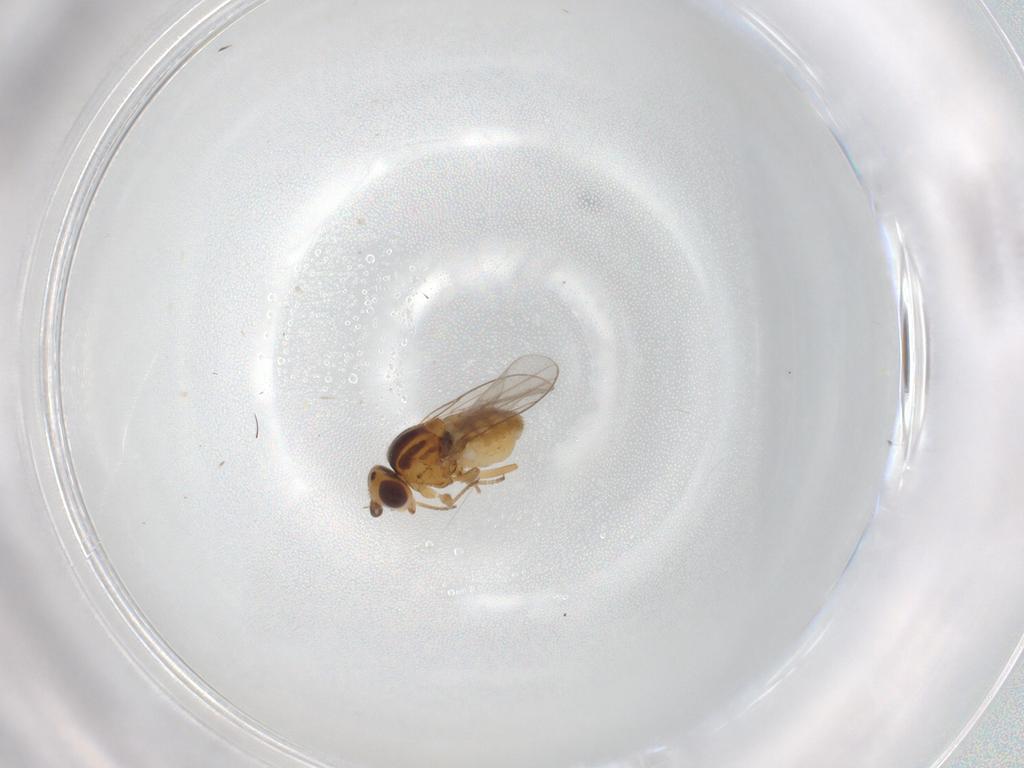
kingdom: Animalia
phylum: Arthropoda
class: Insecta
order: Diptera
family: Chloropidae
